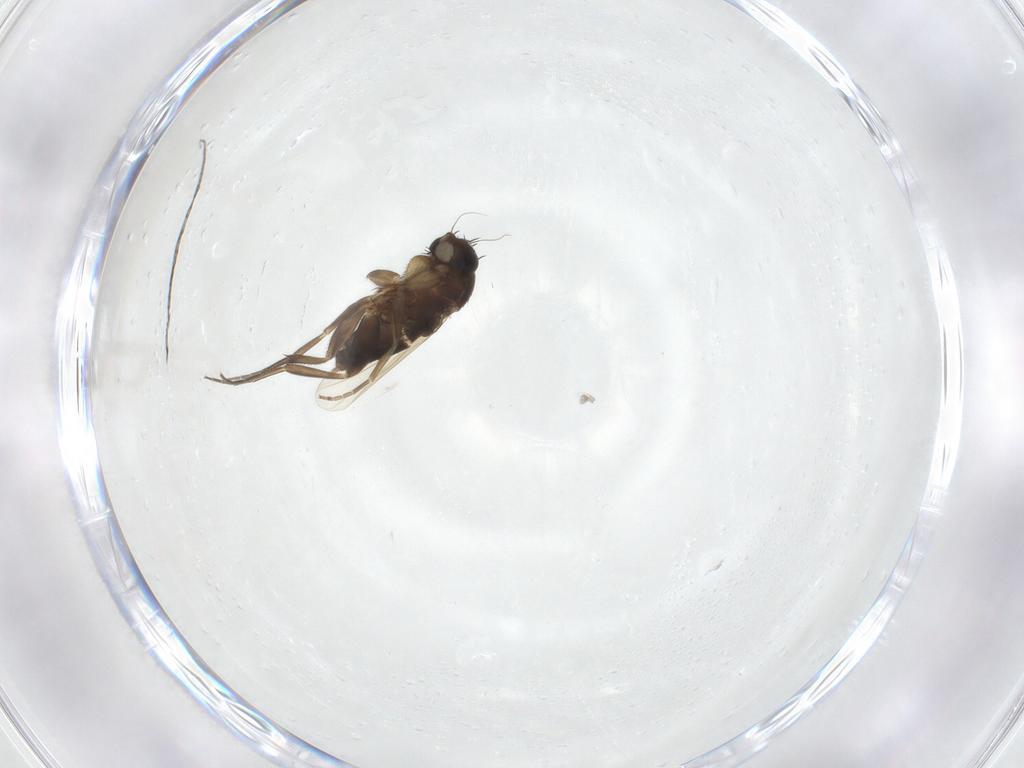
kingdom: Animalia
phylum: Arthropoda
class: Insecta
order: Diptera
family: Phoridae
